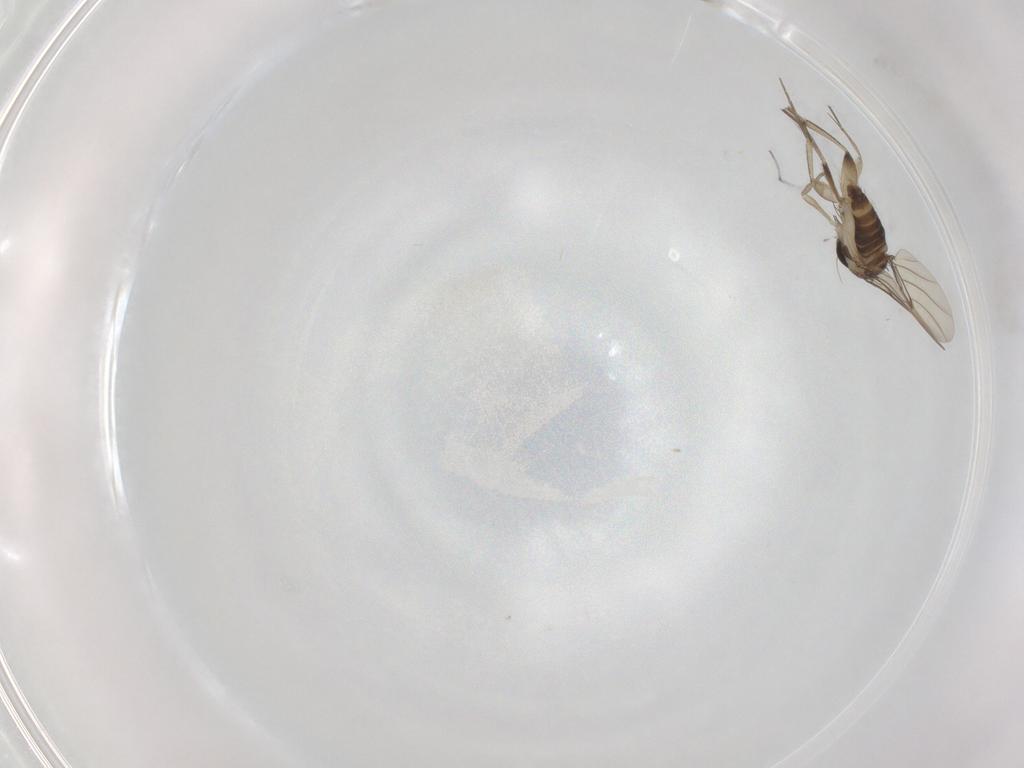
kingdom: Animalia
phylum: Arthropoda
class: Insecta
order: Diptera
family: Phoridae
